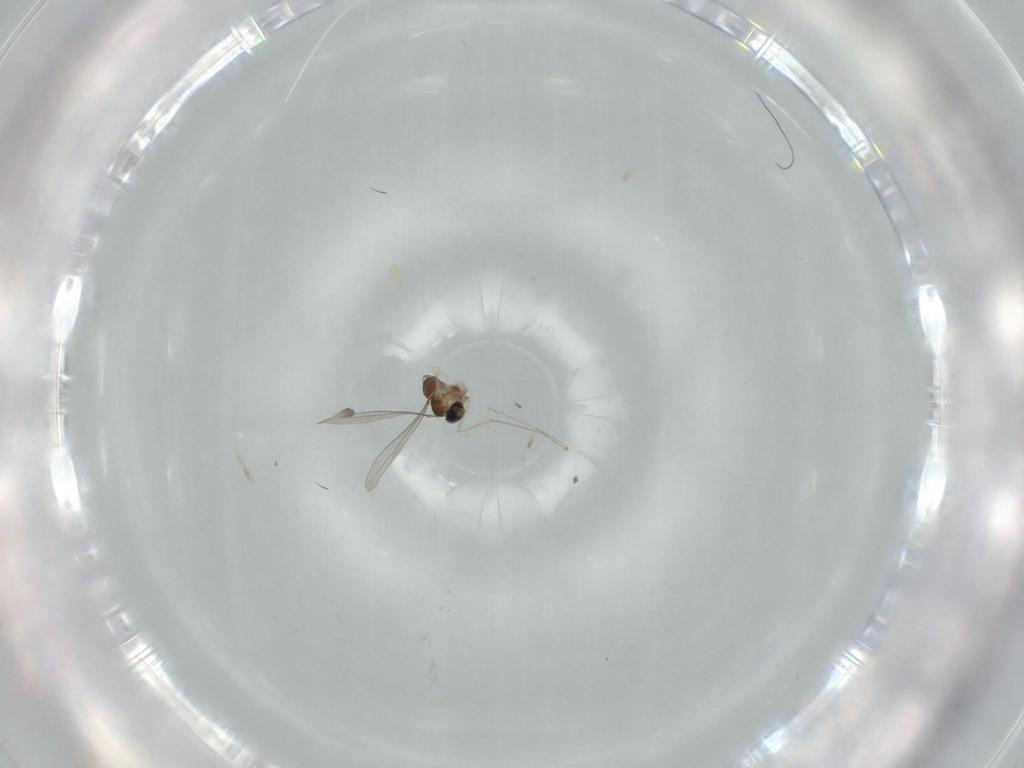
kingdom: Animalia
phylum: Arthropoda
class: Insecta
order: Diptera
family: Cecidomyiidae
